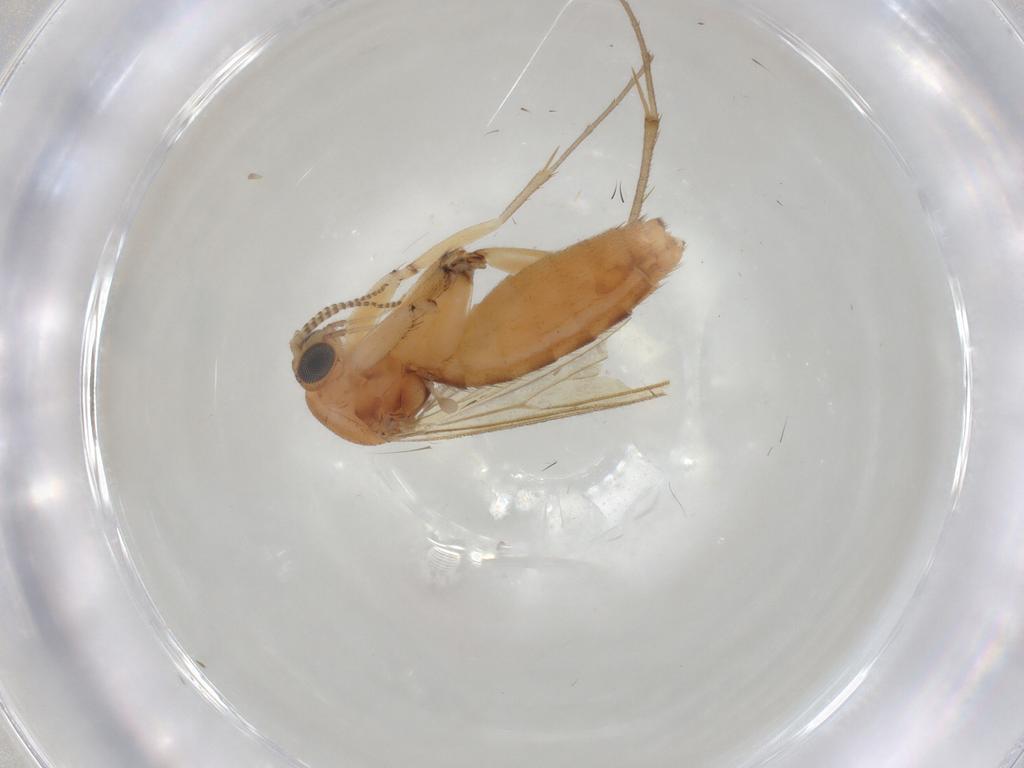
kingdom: Animalia
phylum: Arthropoda
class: Insecta
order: Diptera
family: Mycetophilidae
